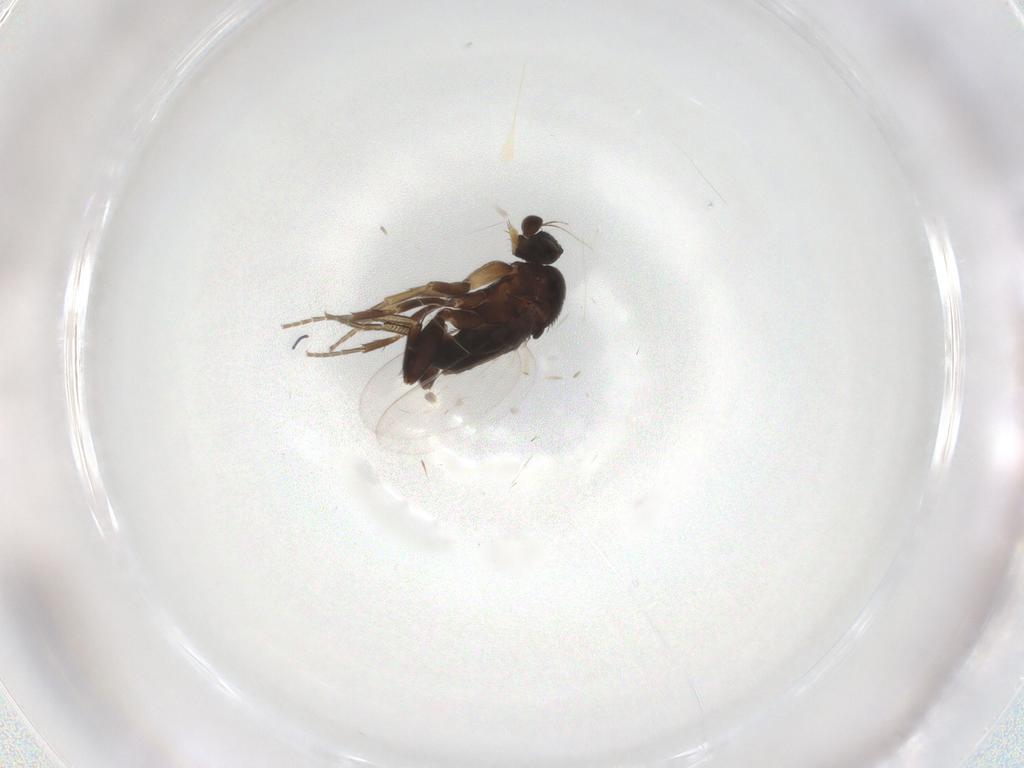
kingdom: Animalia
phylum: Arthropoda
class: Insecta
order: Diptera
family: Phoridae
